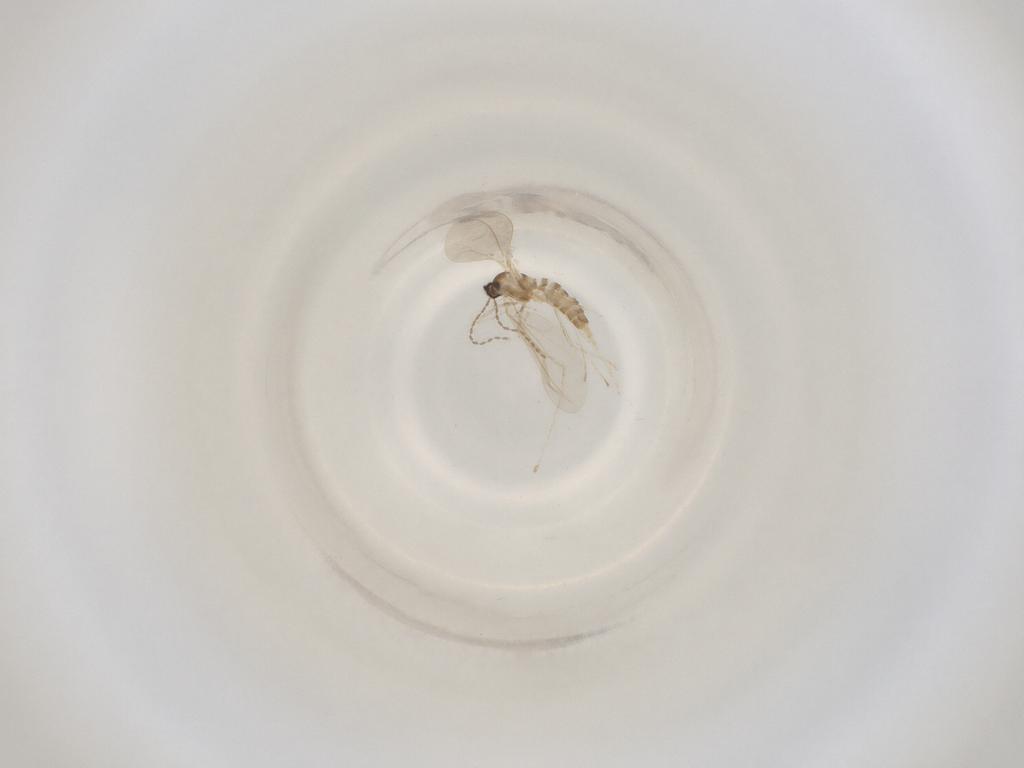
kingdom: Animalia
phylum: Arthropoda
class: Insecta
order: Diptera
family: Cecidomyiidae
